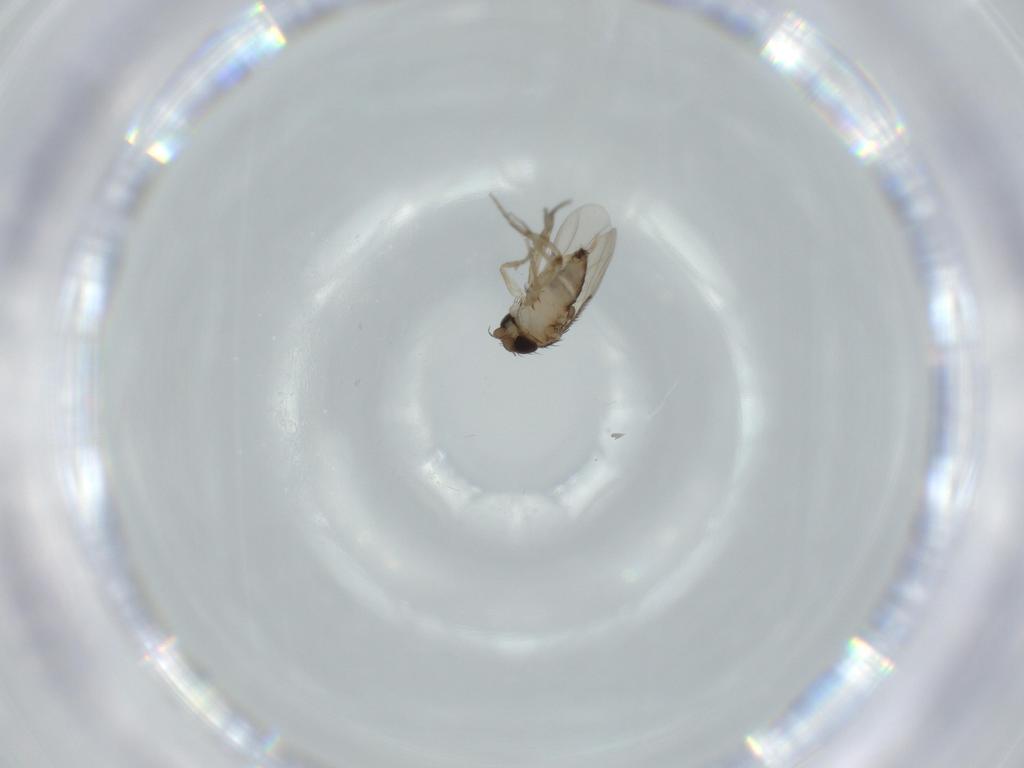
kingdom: Animalia
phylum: Arthropoda
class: Insecta
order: Diptera
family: Phoridae
